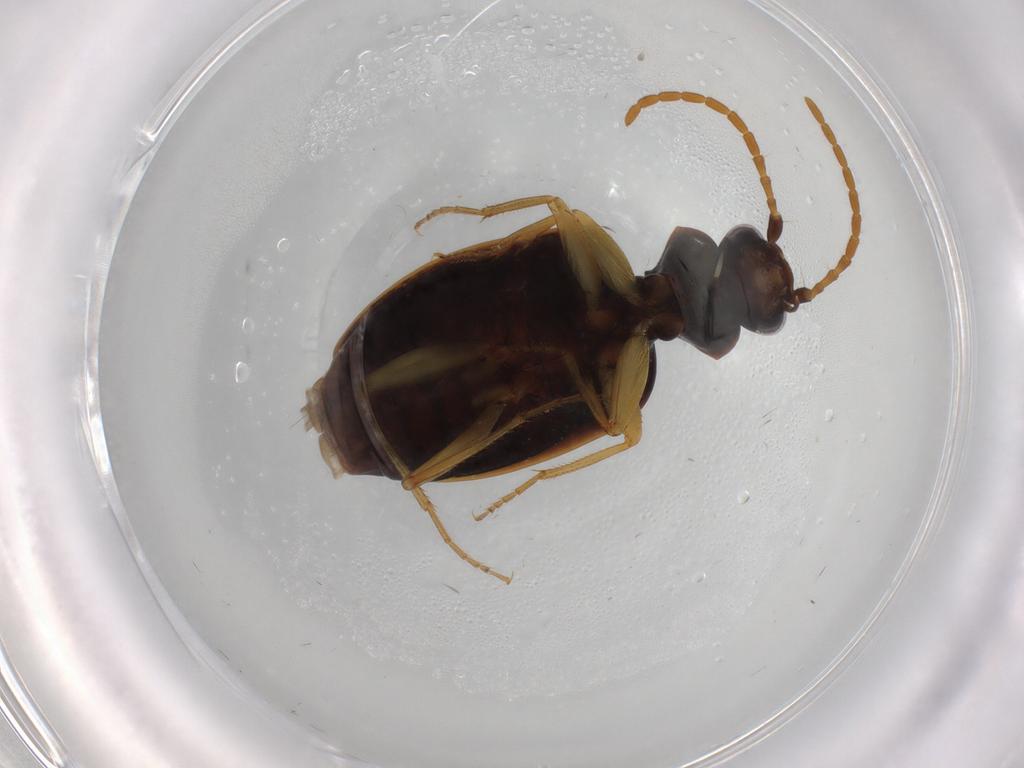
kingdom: Animalia
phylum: Arthropoda
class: Insecta
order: Coleoptera
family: Carabidae
